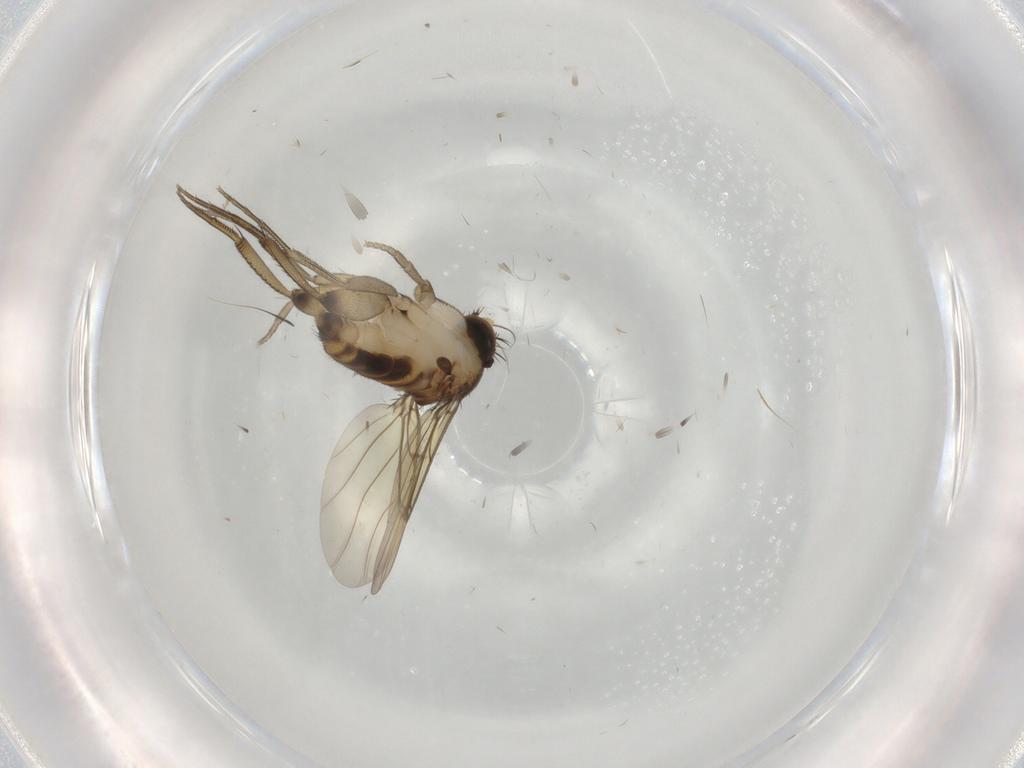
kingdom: Animalia
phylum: Arthropoda
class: Insecta
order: Diptera
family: Phoridae
